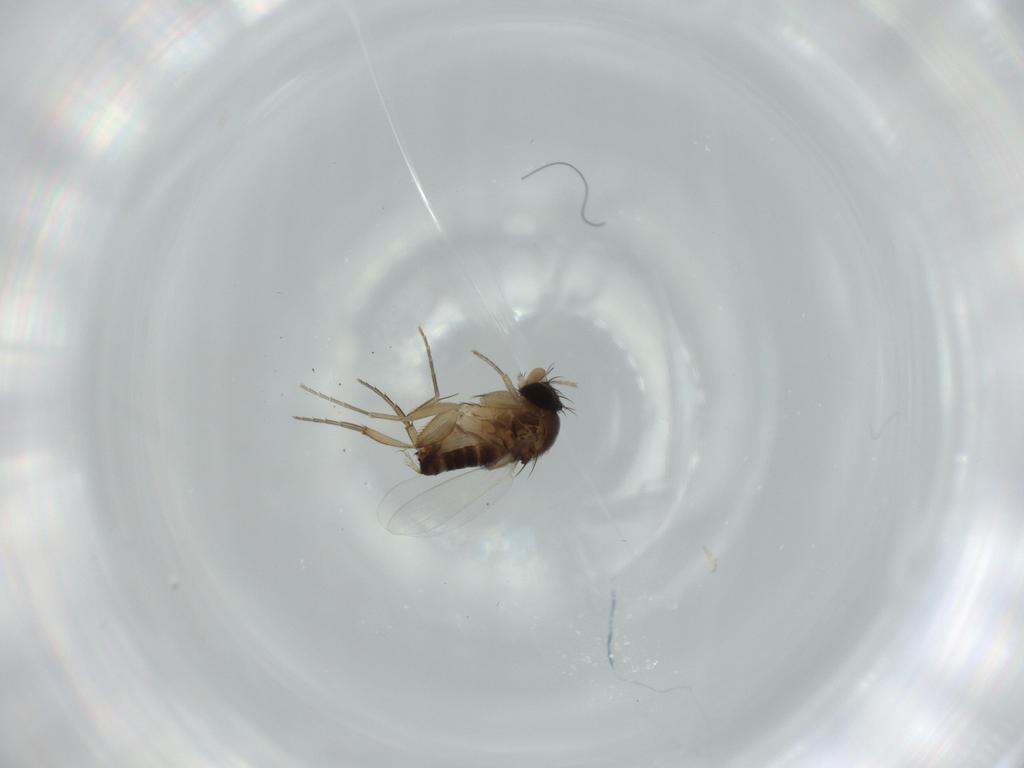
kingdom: Animalia
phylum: Arthropoda
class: Insecta
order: Diptera
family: Phoridae
